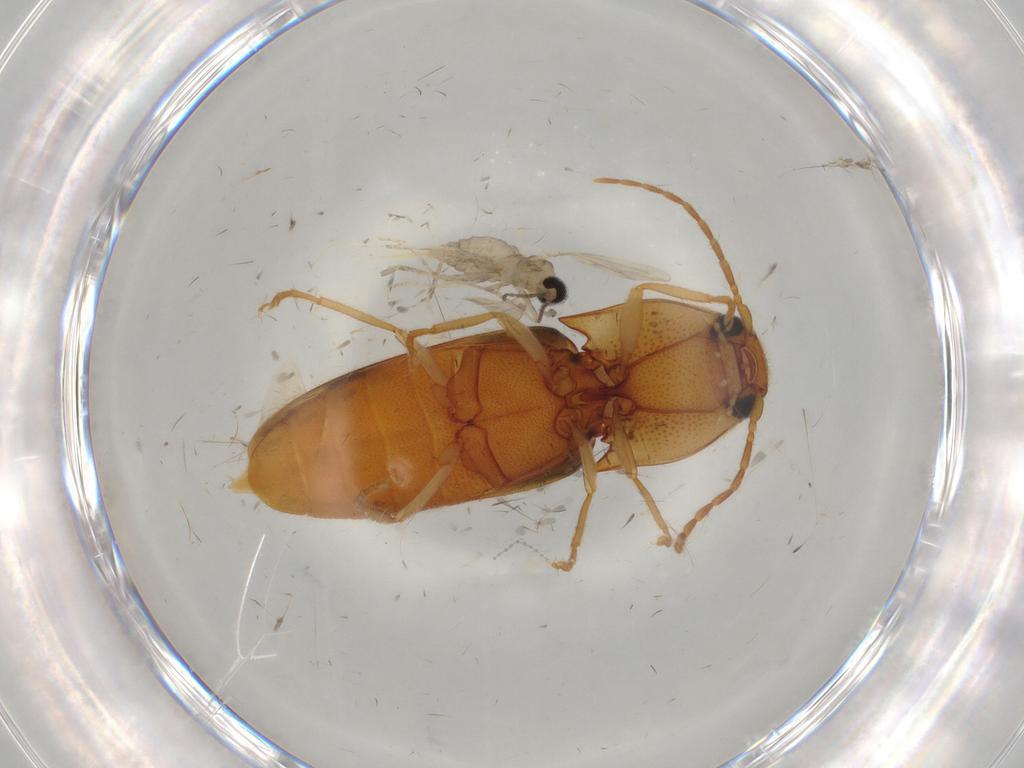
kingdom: Animalia
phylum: Arthropoda
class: Insecta
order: Coleoptera
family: Elateridae
